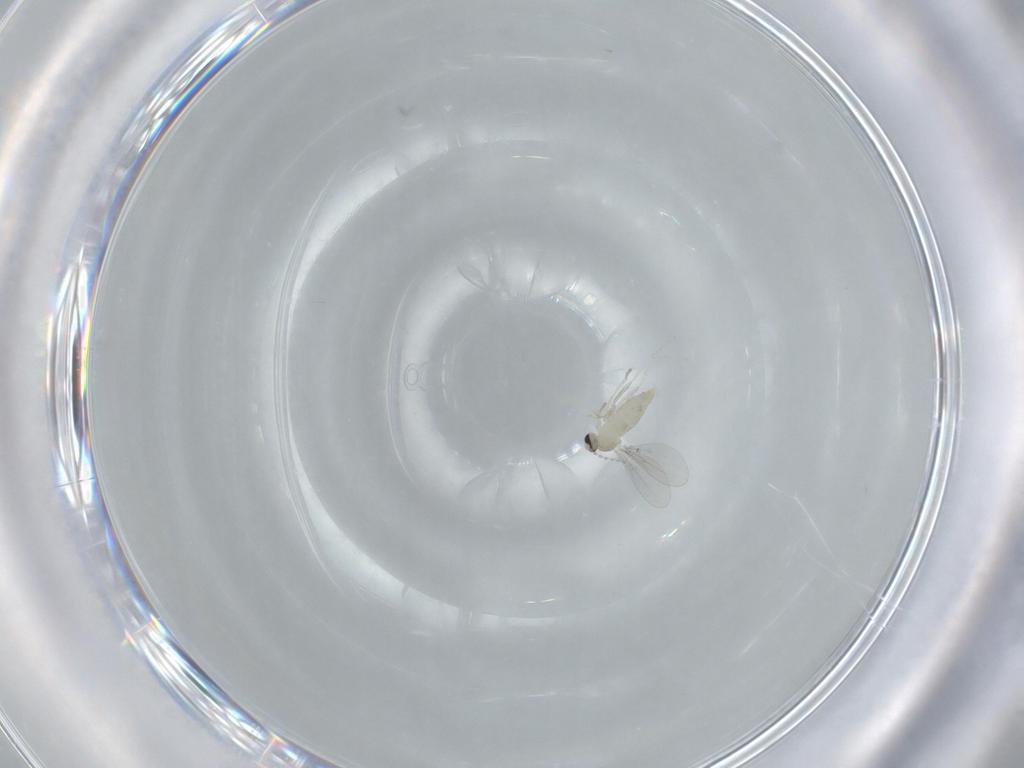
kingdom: Animalia
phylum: Arthropoda
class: Insecta
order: Diptera
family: Cecidomyiidae
